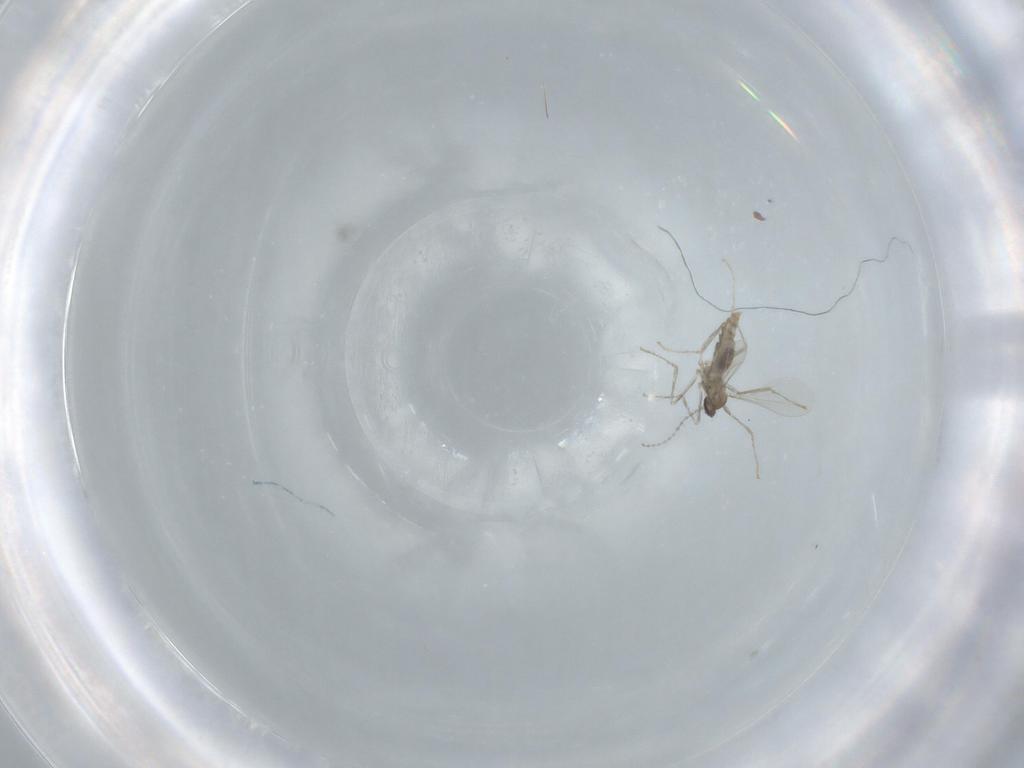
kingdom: Animalia
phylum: Arthropoda
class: Insecta
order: Diptera
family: Cecidomyiidae
